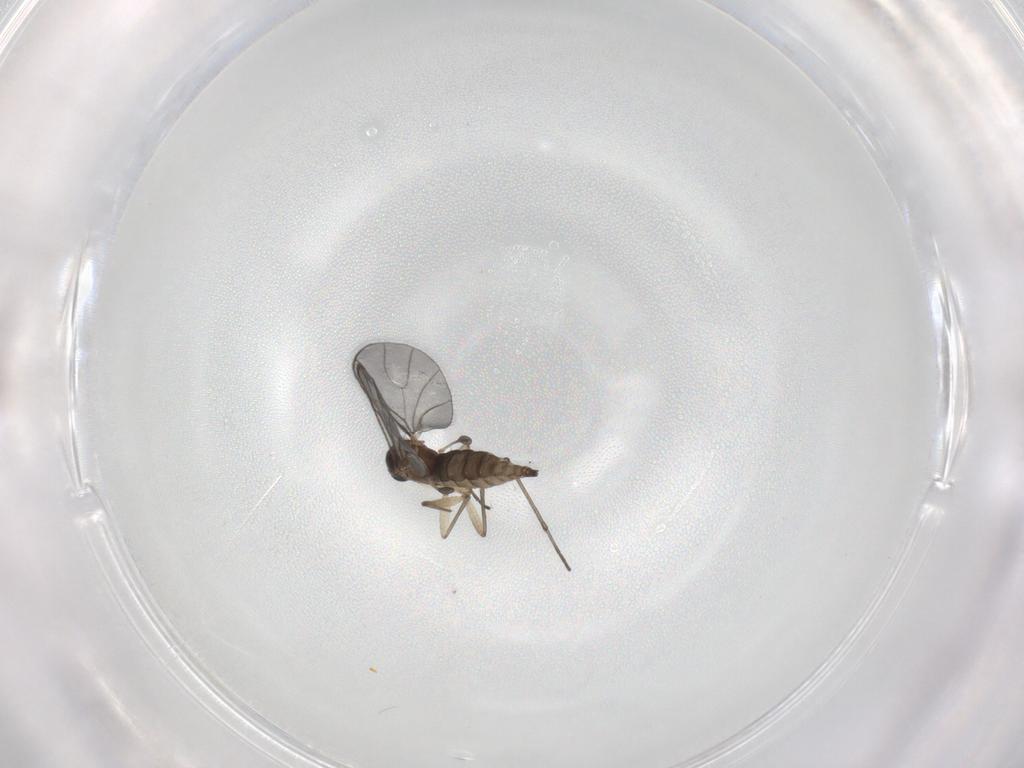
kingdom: Animalia
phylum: Arthropoda
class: Insecta
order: Diptera
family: Sciaridae
